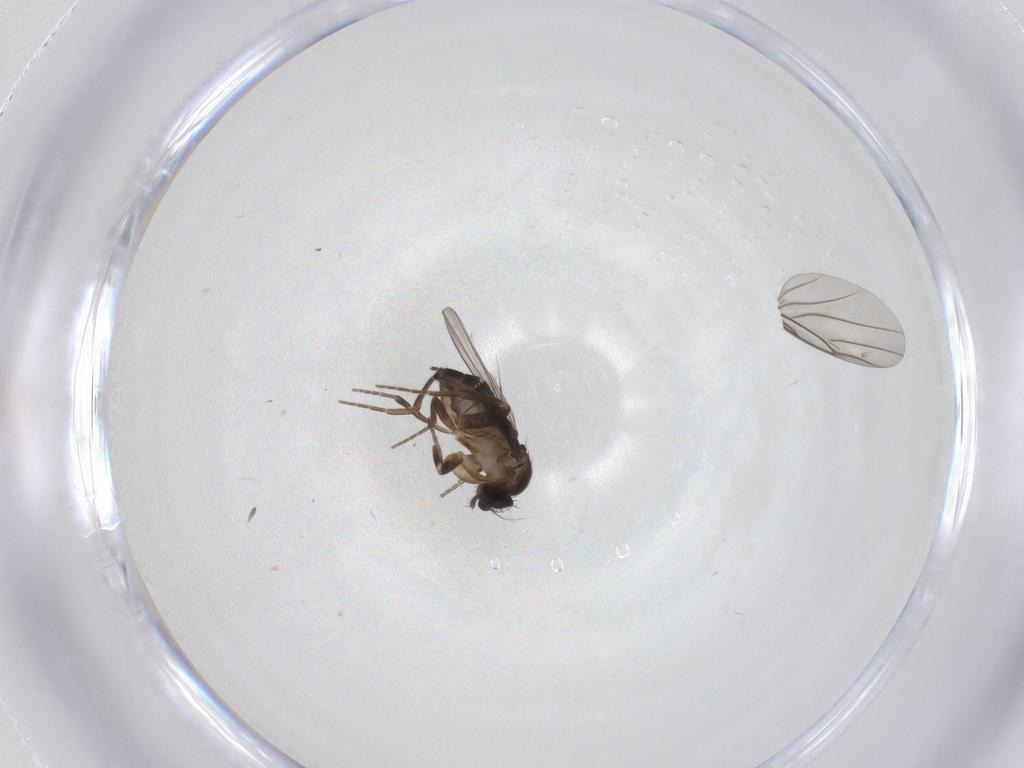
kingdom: Animalia
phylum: Arthropoda
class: Insecta
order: Diptera
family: Cecidomyiidae
